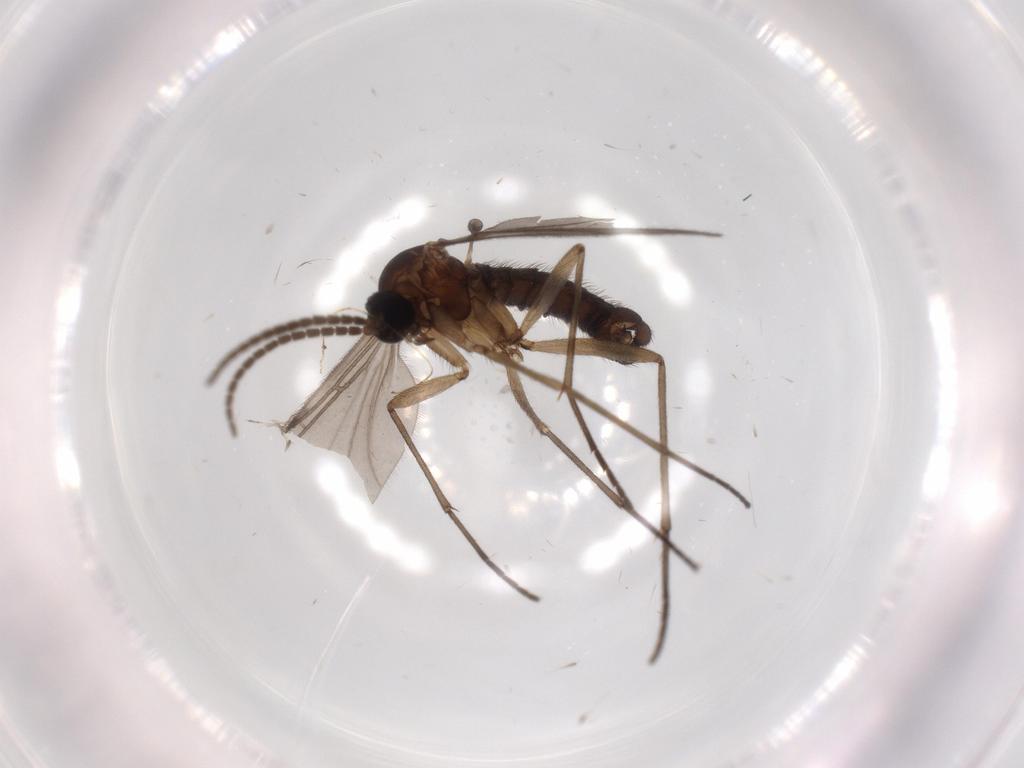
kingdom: Animalia
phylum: Arthropoda
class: Insecta
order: Diptera
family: Sciaridae
